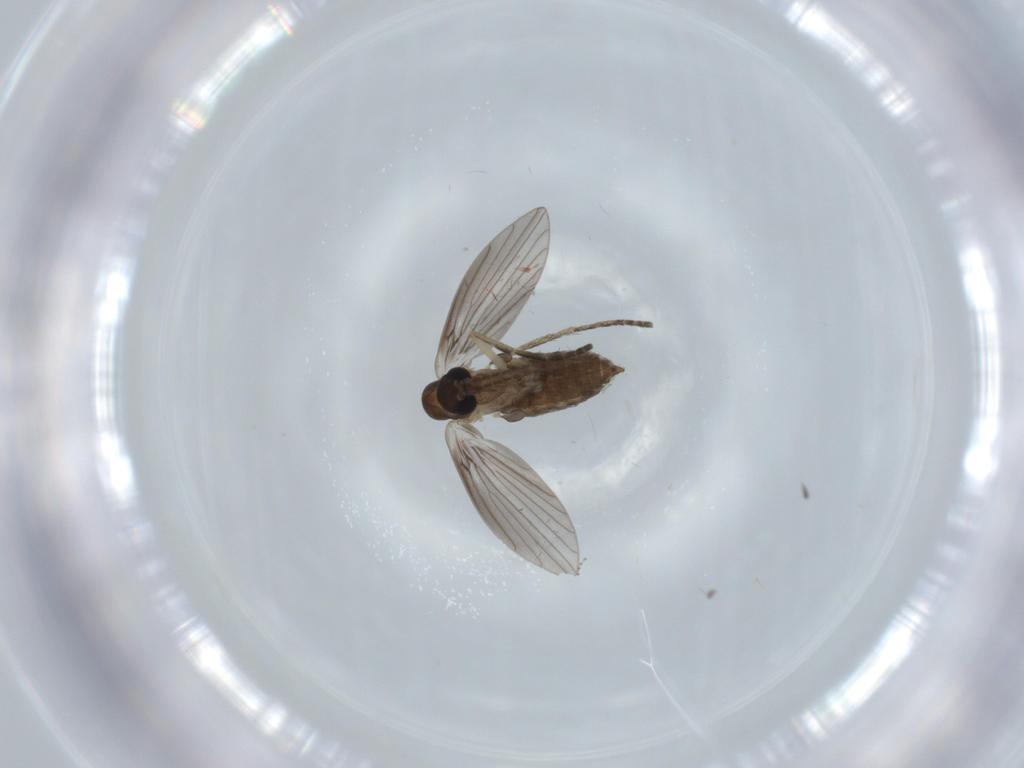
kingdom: Animalia
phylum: Arthropoda
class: Insecta
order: Diptera
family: Cecidomyiidae
